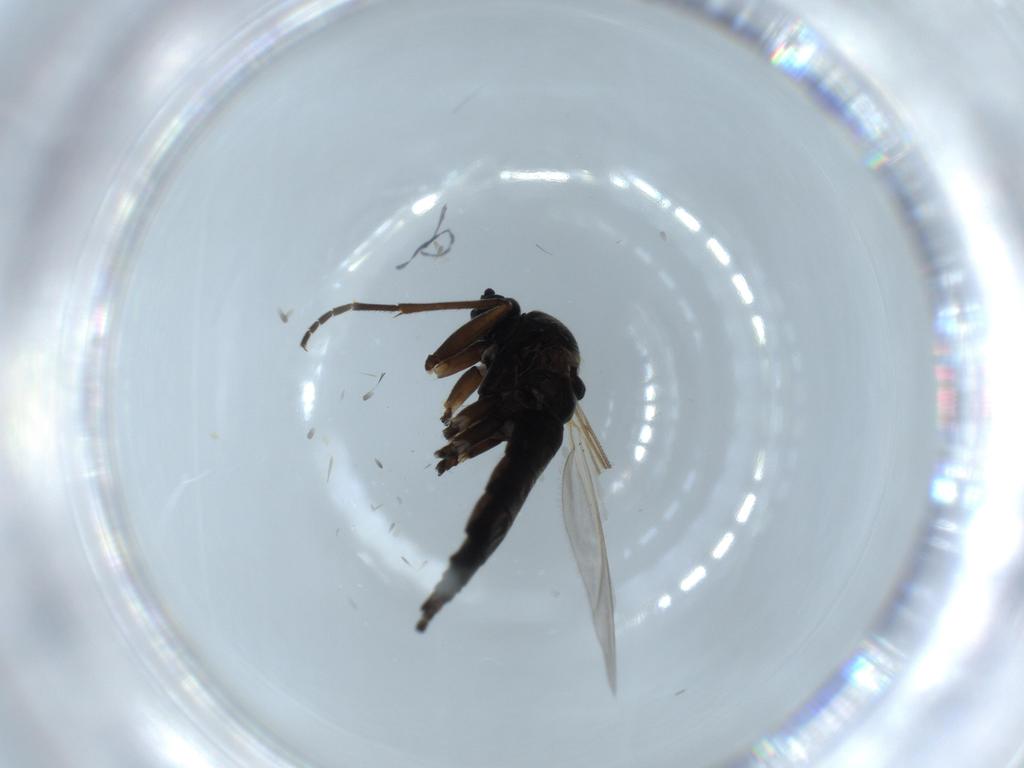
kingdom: Animalia
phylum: Arthropoda
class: Insecta
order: Diptera
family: Sciaridae
